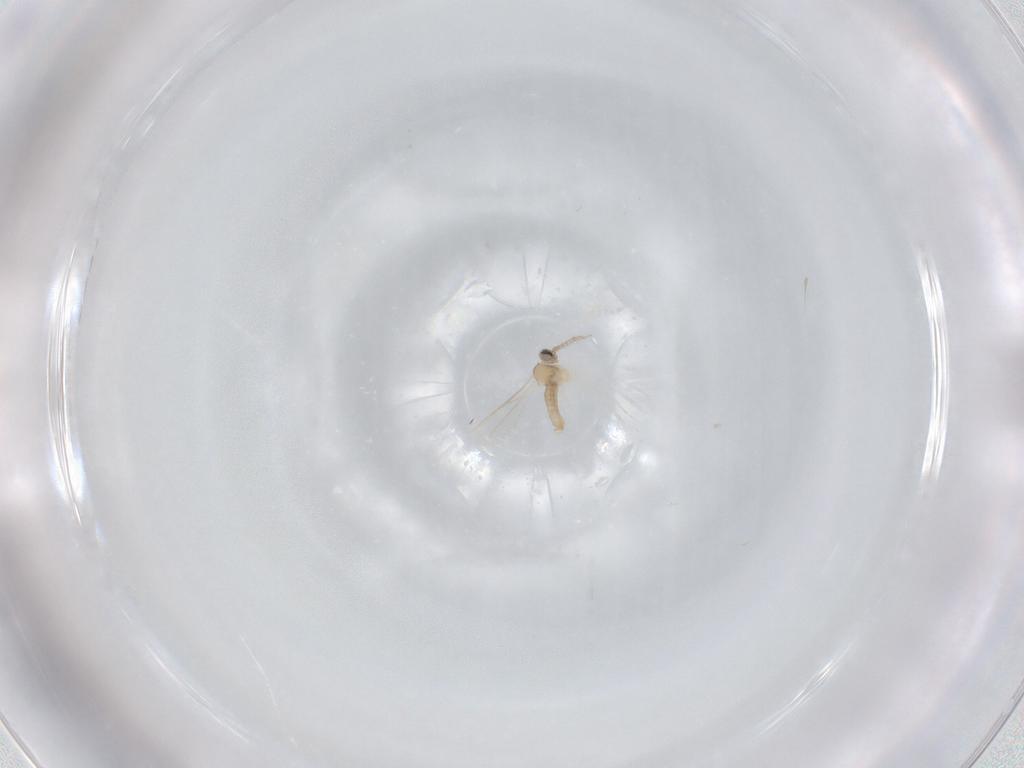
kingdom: Animalia
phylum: Arthropoda
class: Insecta
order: Diptera
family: Cecidomyiidae
